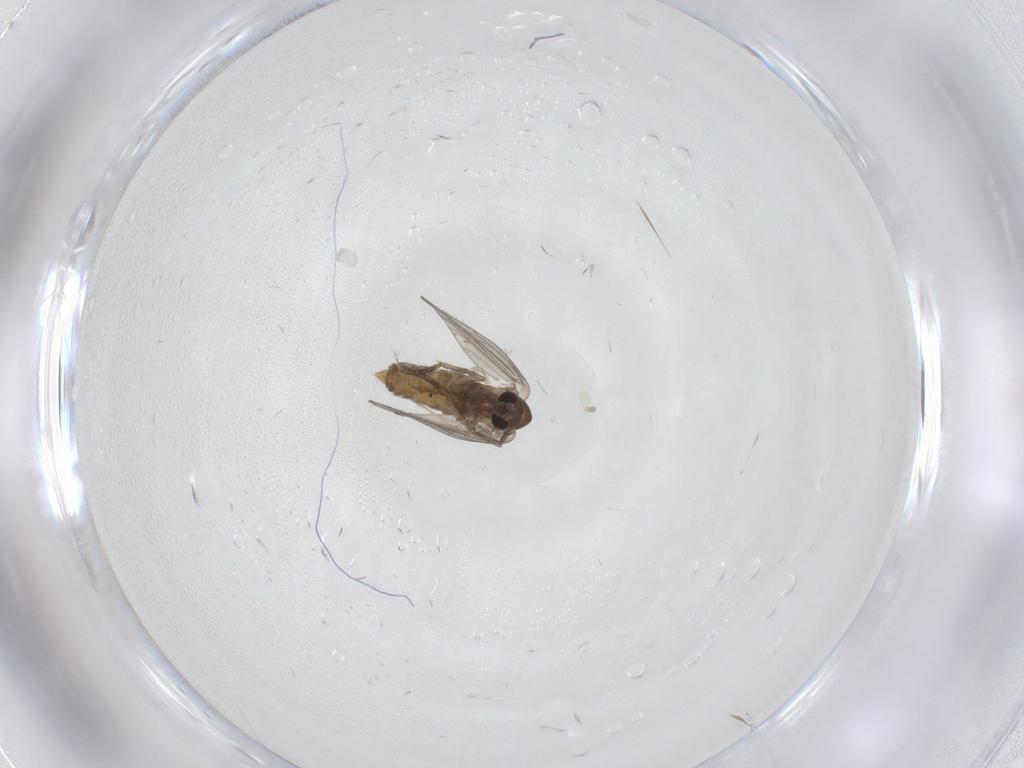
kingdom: Animalia
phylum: Arthropoda
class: Insecta
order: Diptera
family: Psychodidae
